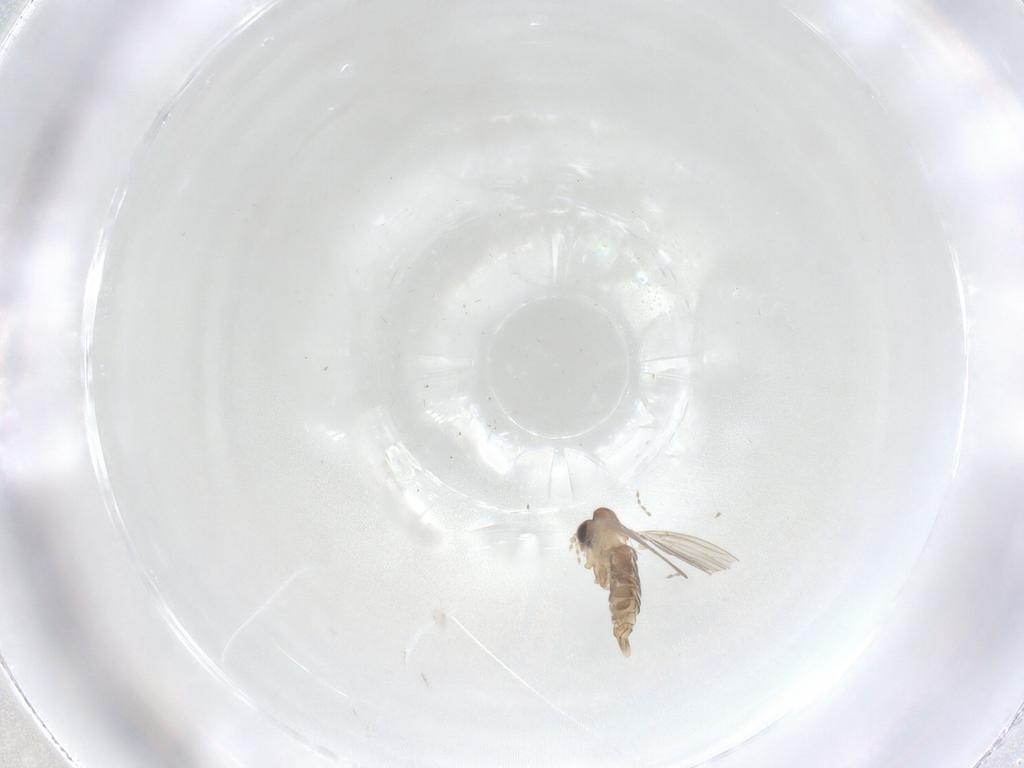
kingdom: Animalia
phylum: Arthropoda
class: Insecta
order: Diptera
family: Psychodidae
